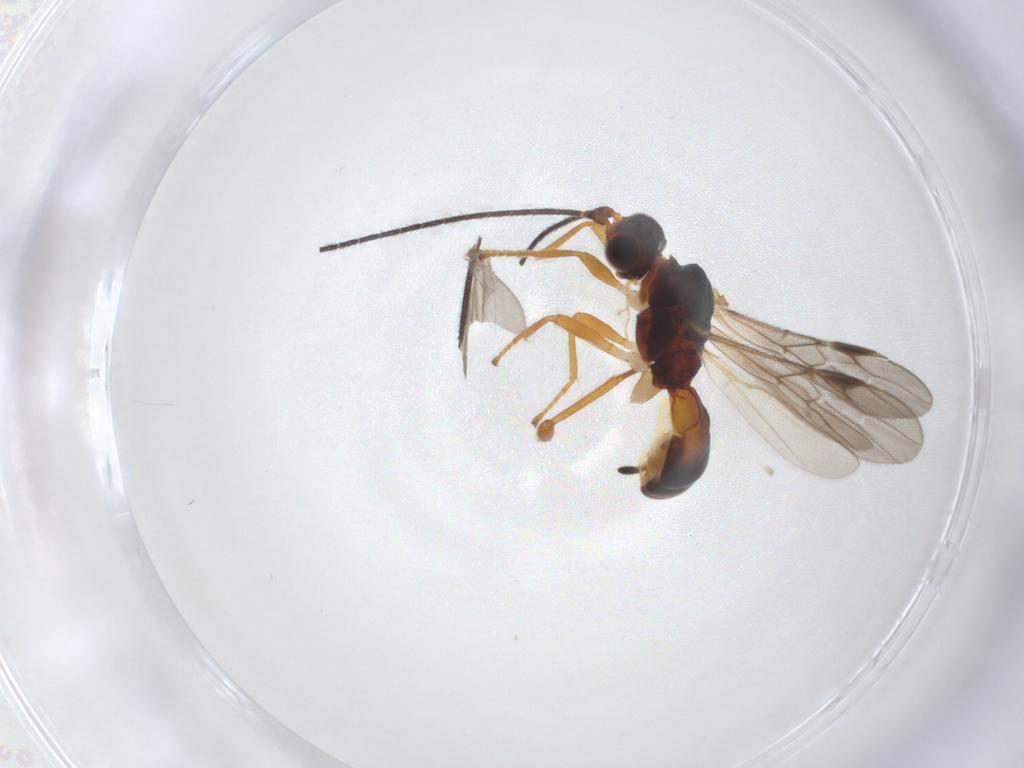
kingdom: Animalia
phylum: Arthropoda
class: Insecta
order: Hymenoptera
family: Braconidae
